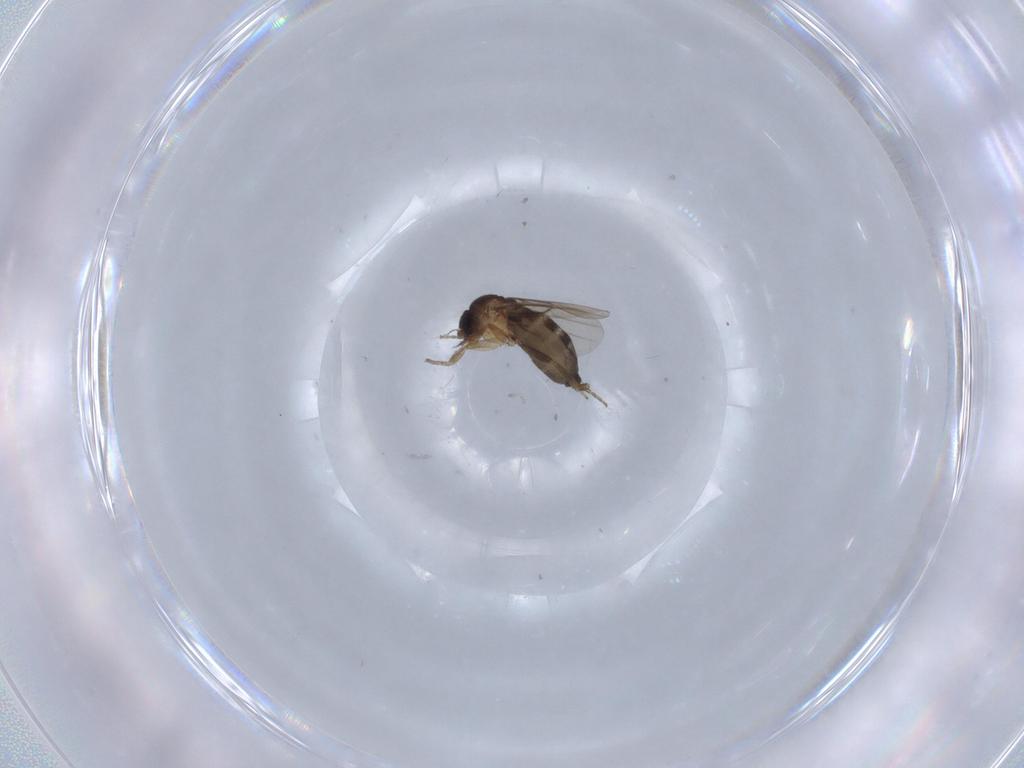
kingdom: Animalia
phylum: Arthropoda
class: Insecta
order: Diptera
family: Phoridae
